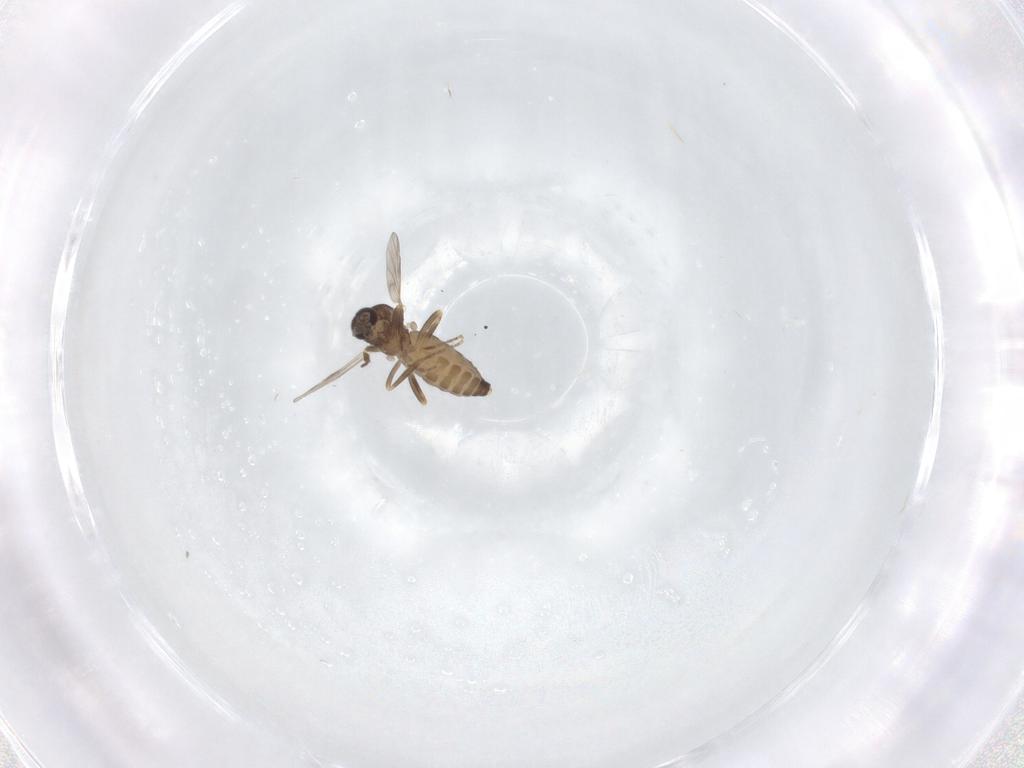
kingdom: Animalia
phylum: Arthropoda
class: Insecta
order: Diptera
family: Ceratopogonidae
